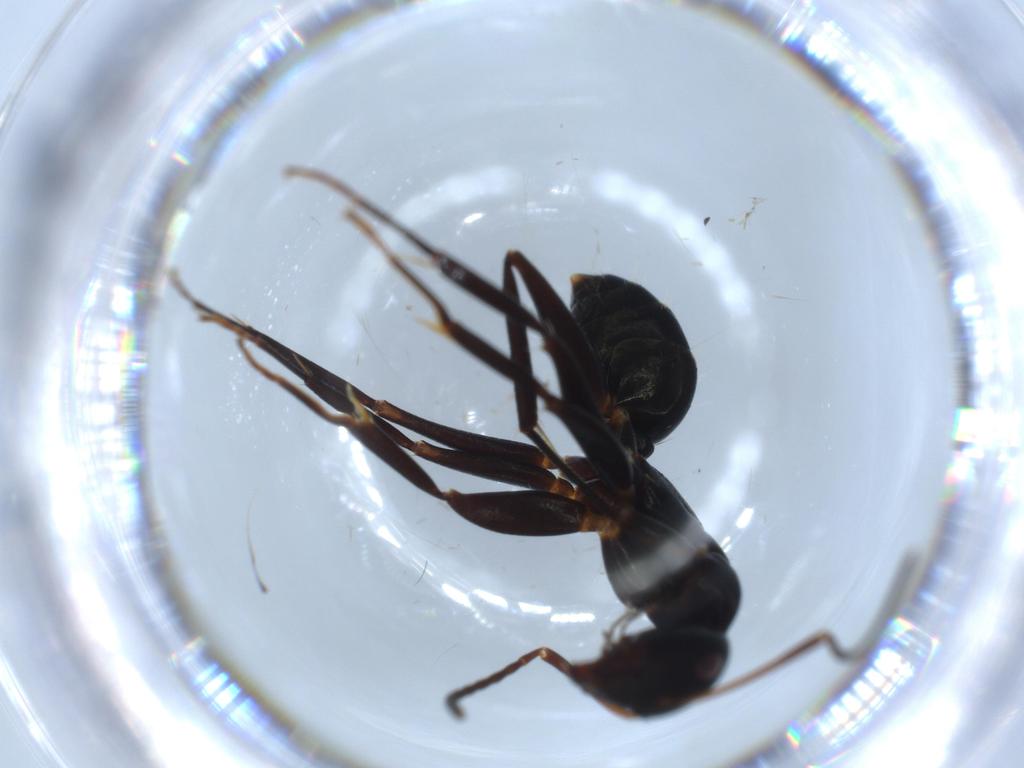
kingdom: Animalia
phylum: Arthropoda
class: Insecta
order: Hymenoptera
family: Formicidae
